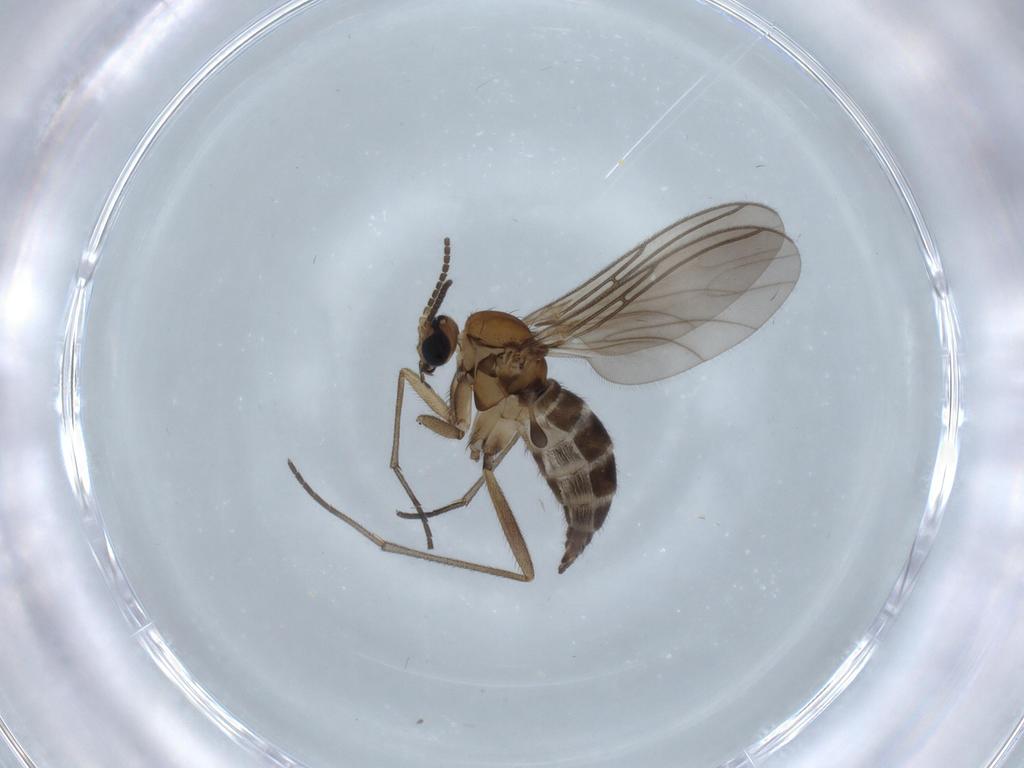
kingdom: Animalia
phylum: Arthropoda
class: Insecta
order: Diptera
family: Sciaridae
